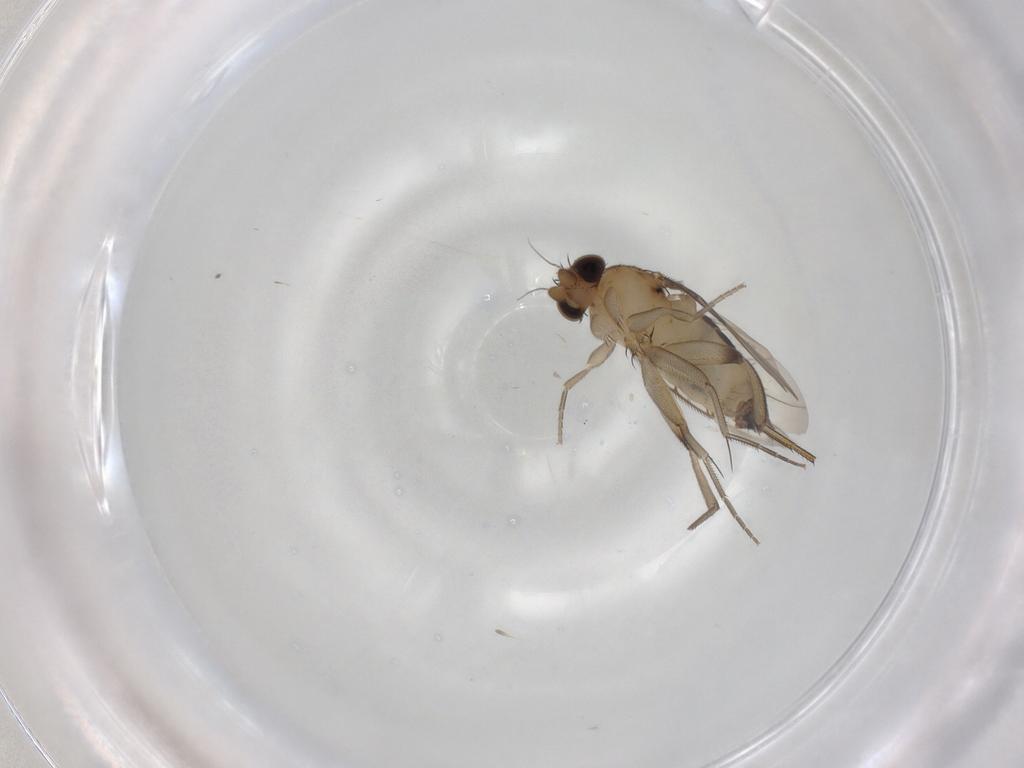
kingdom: Animalia
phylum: Arthropoda
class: Insecta
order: Diptera
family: Phoridae
